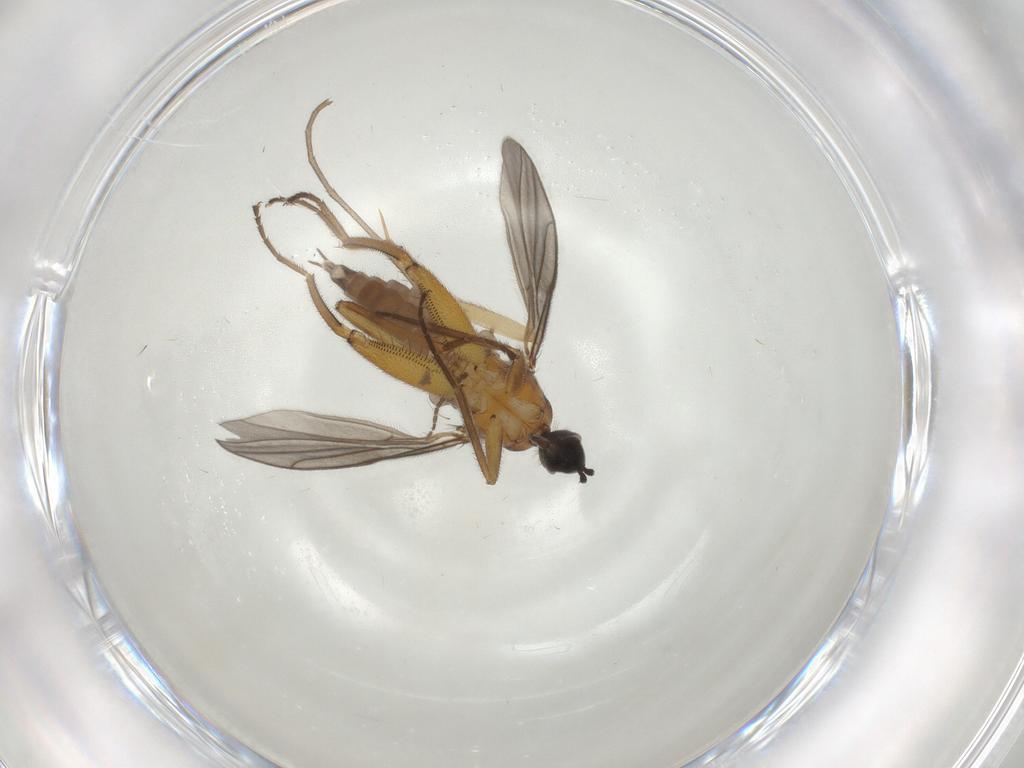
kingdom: Animalia
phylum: Arthropoda
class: Insecta
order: Diptera
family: Hybotidae
